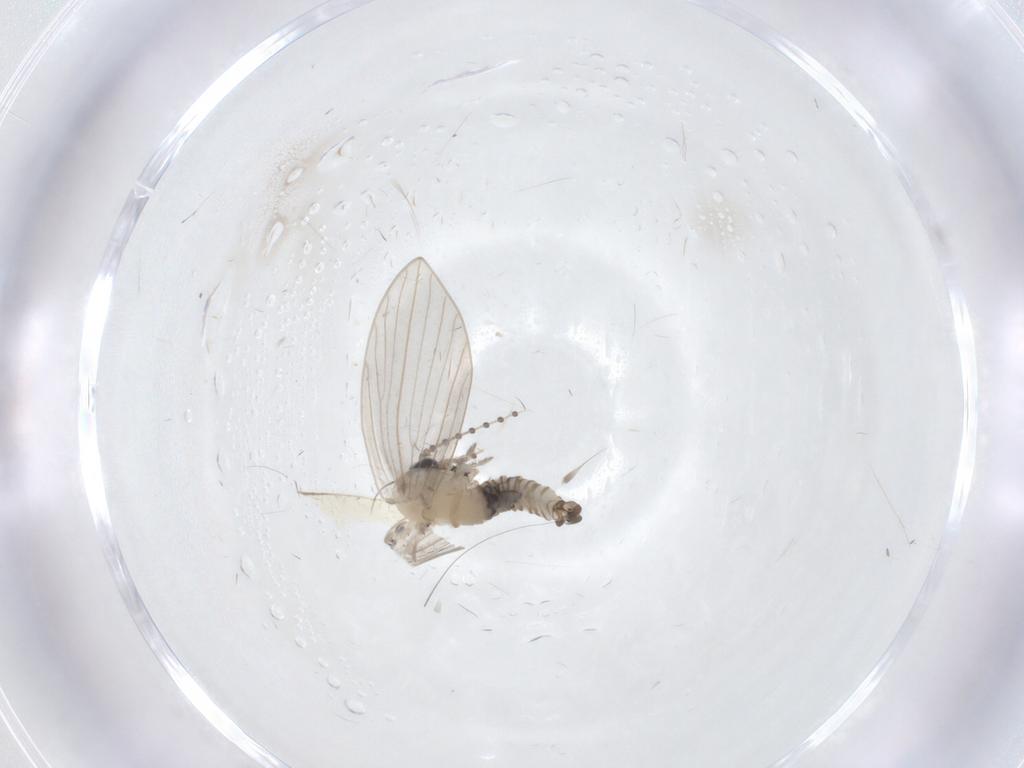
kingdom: Animalia
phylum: Arthropoda
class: Insecta
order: Diptera
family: Psychodidae
